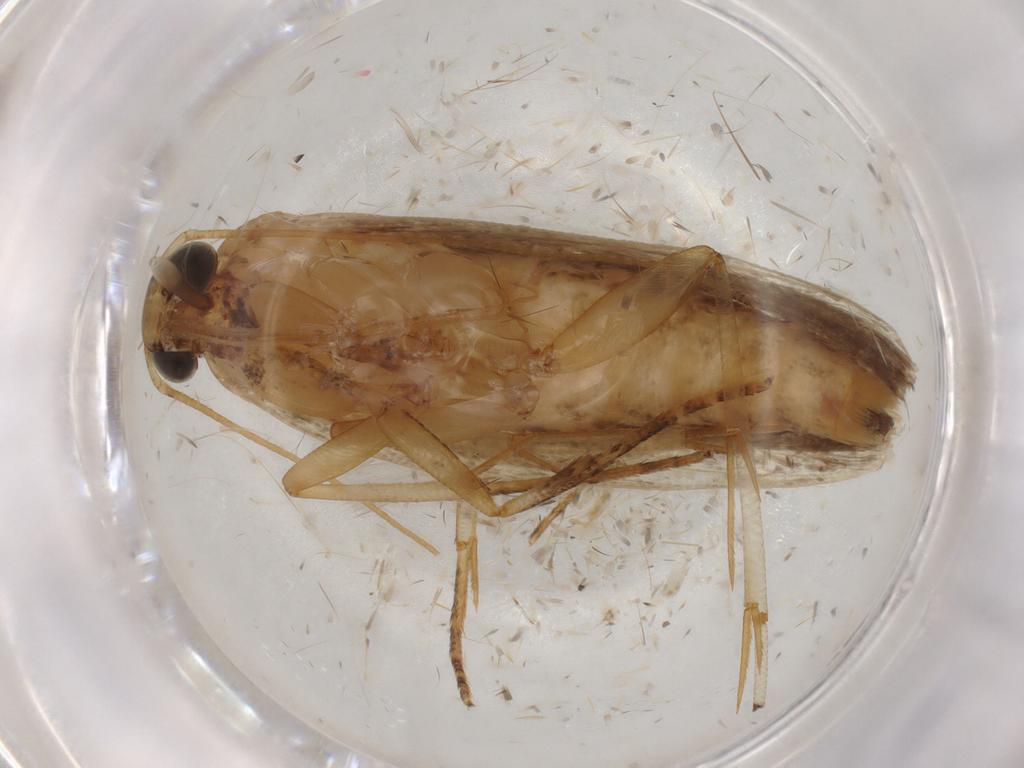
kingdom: Animalia
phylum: Arthropoda
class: Insecta
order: Lepidoptera
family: Gelechiidae
